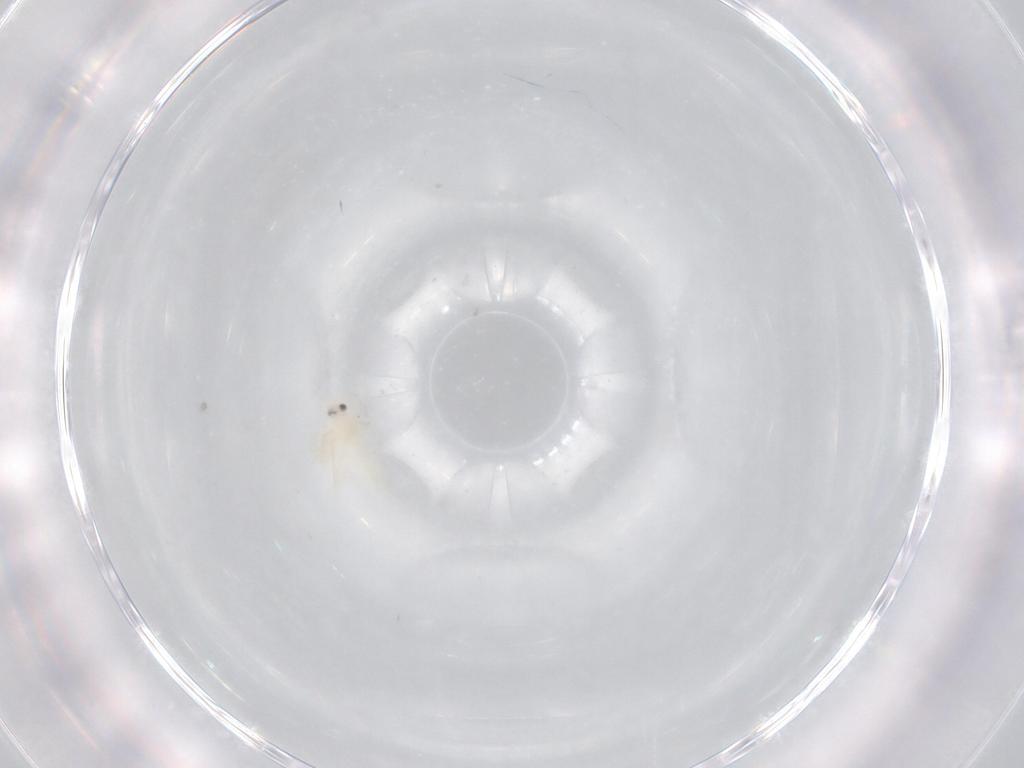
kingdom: Animalia
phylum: Arthropoda
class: Insecta
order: Hemiptera
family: Aleyrodidae
